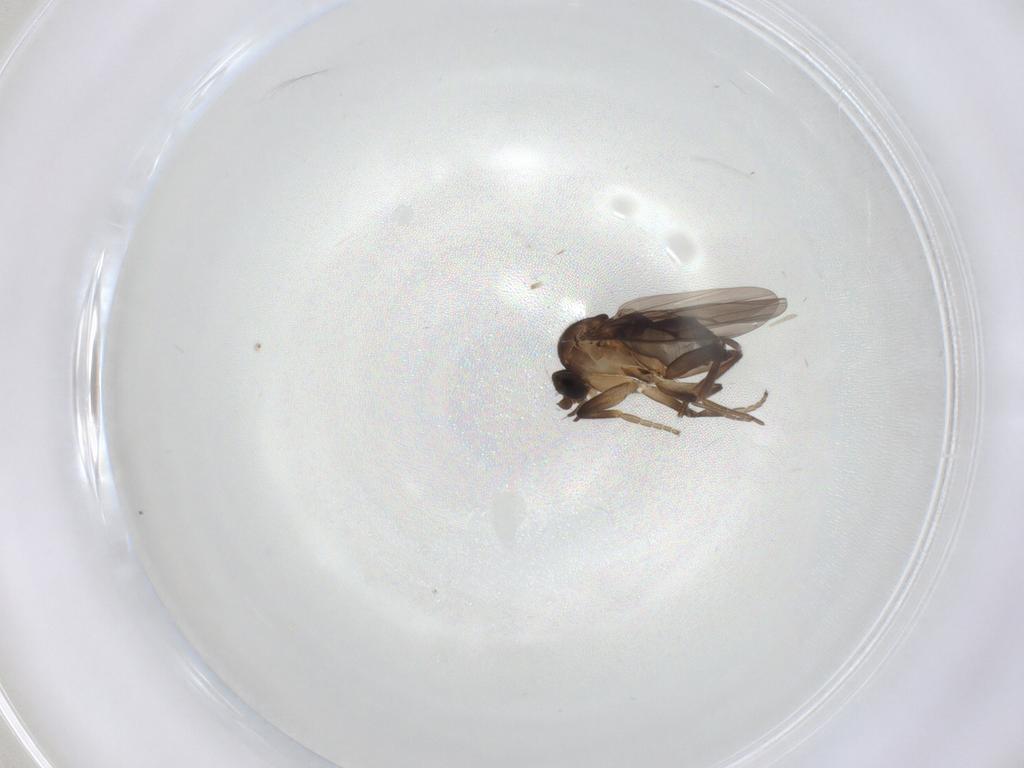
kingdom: Animalia
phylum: Arthropoda
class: Insecta
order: Diptera
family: Phoridae
